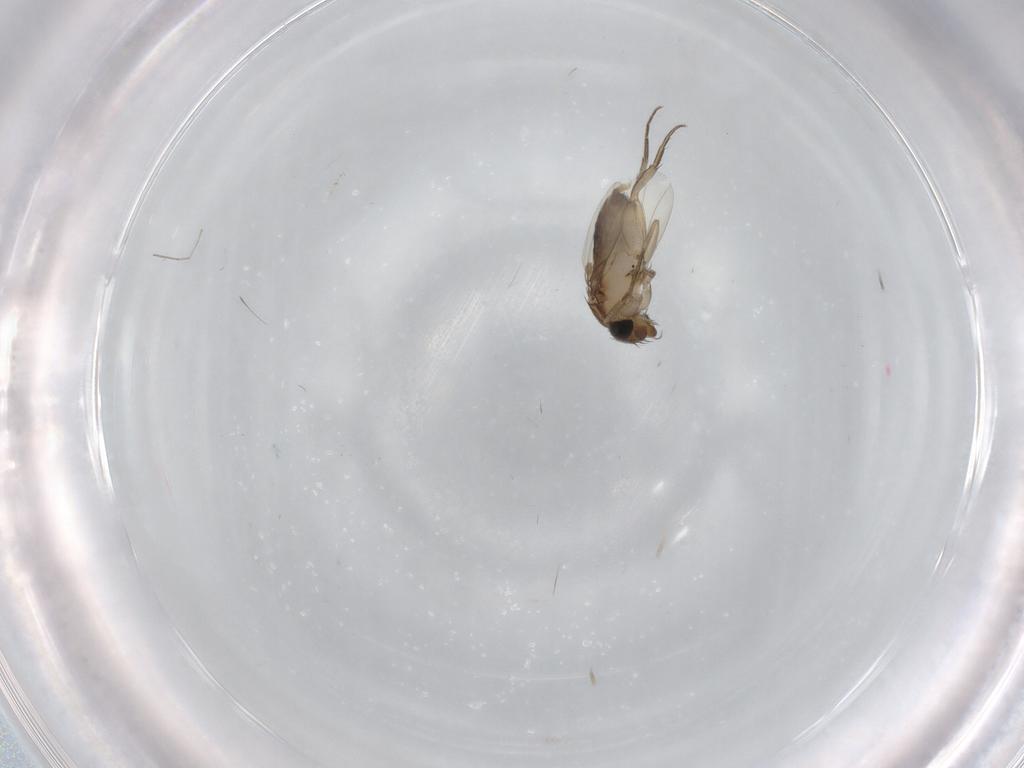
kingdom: Animalia
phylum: Arthropoda
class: Insecta
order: Diptera
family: Phoridae
